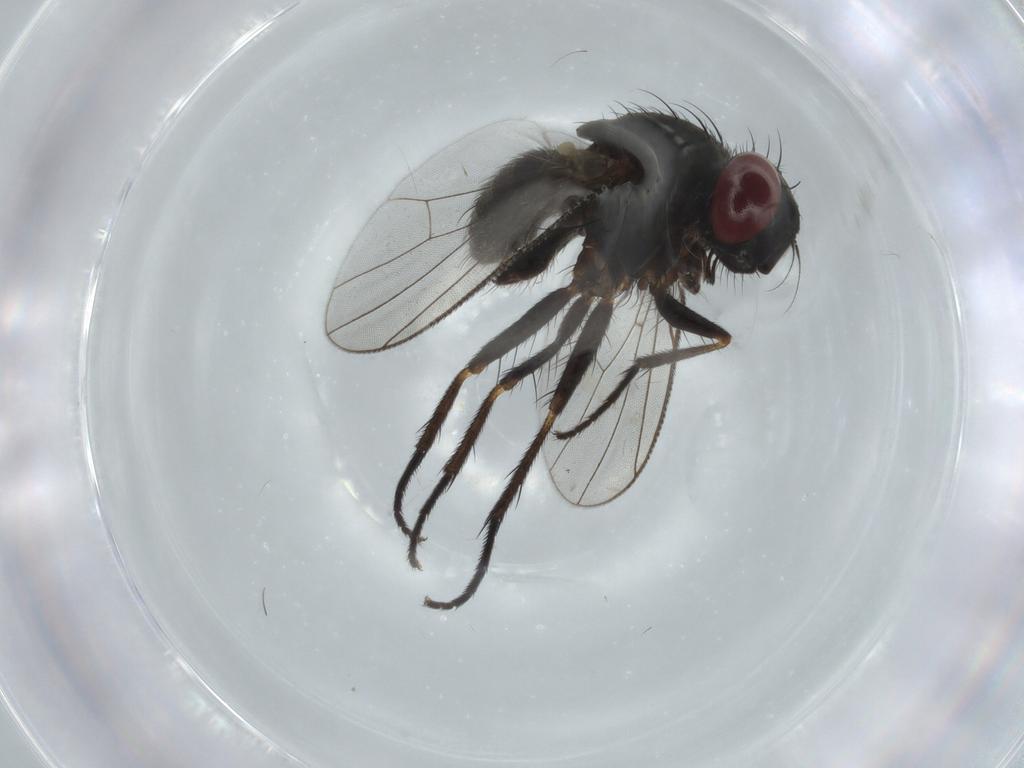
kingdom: Animalia
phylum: Arthropoda
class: Insecta
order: Diptera
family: Muscidae
